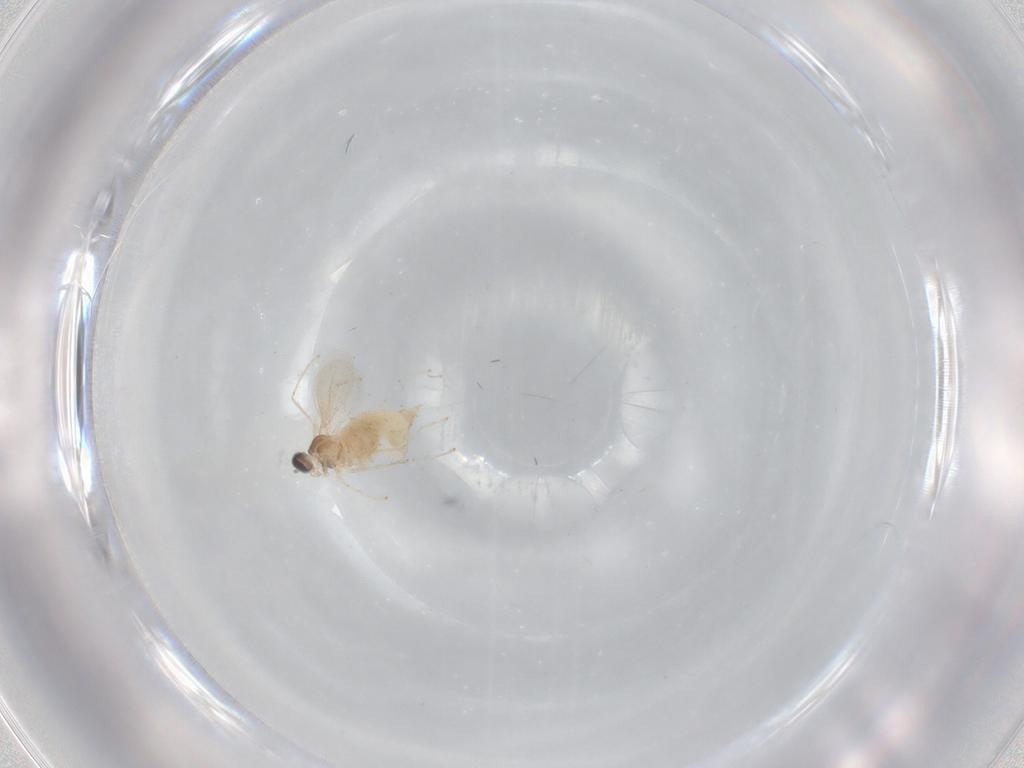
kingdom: Animalia
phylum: Arthropoda
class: Insecta
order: Diptera
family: Cecidomyiidae
